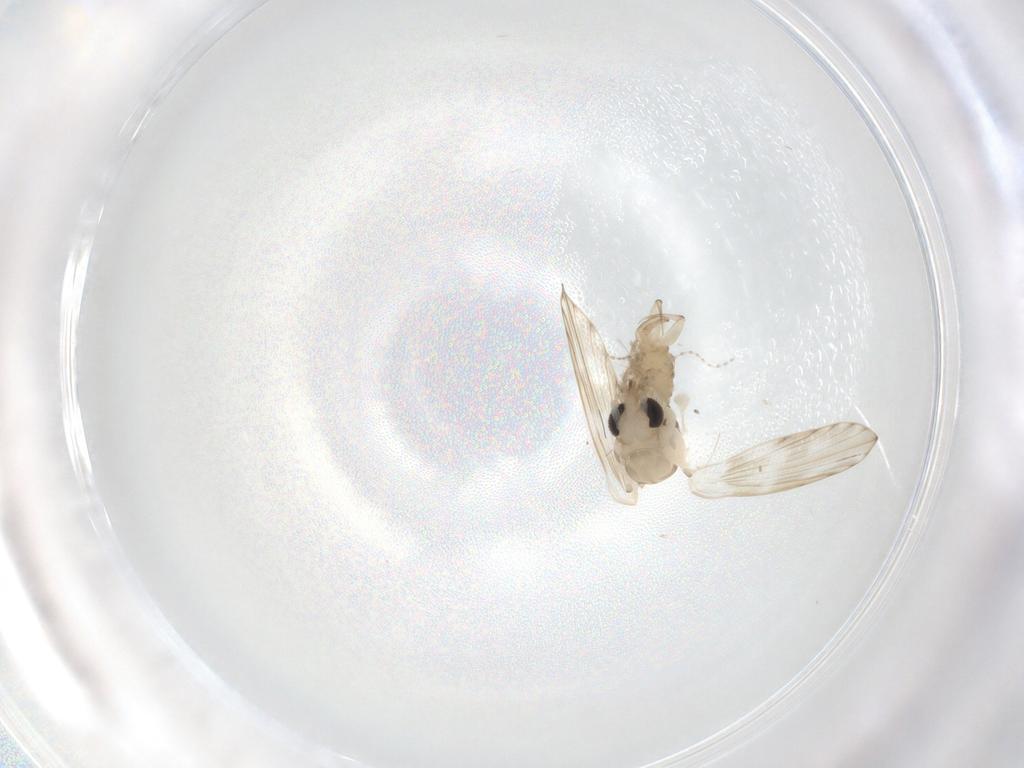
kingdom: Animalia
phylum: Arthropoda
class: Insecta
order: Diptera
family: Psychodidae
